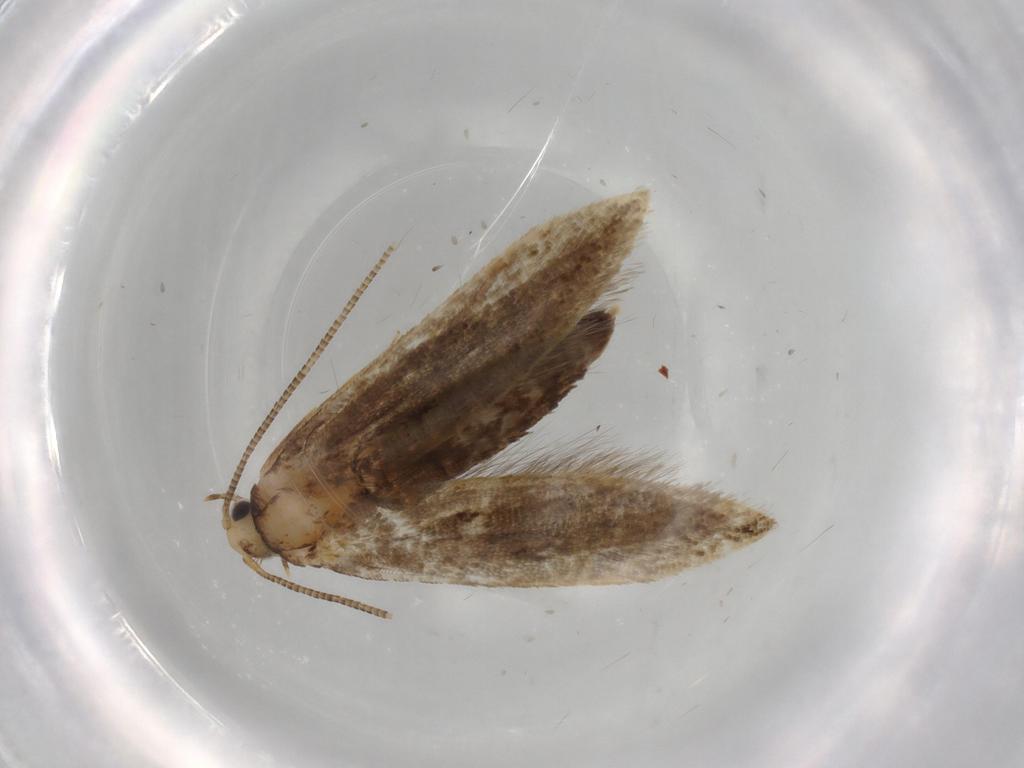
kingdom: Animalia
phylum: Arthropoda
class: Insecta
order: Lepidoptera
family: Tineidae
